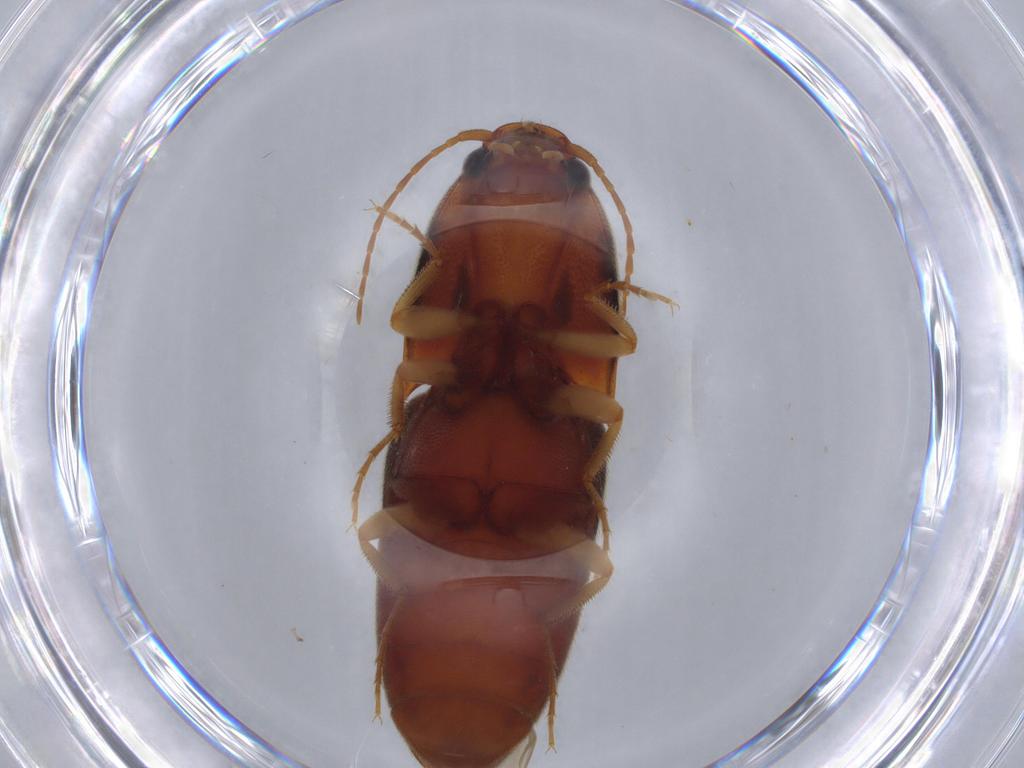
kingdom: Animalia
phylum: Arthropoda
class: Insecta
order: Coleoptera
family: Elateridae
